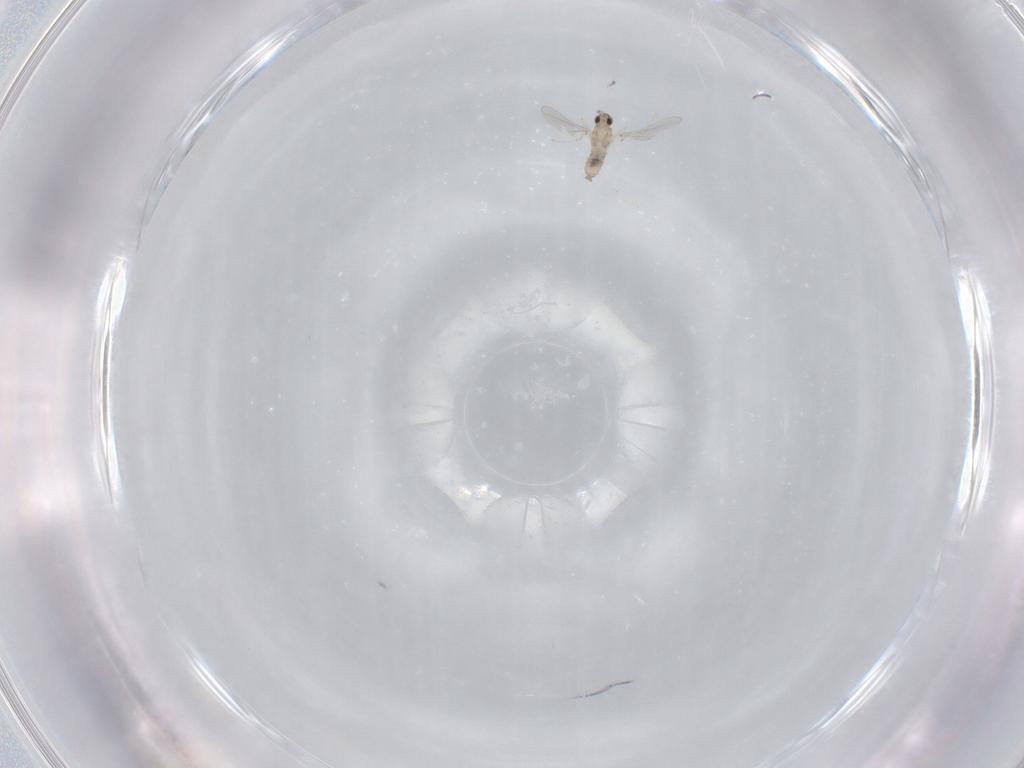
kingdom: Animalia
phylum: Arthropoda
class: Insecta
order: Diptera
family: Cecidomyiidae
